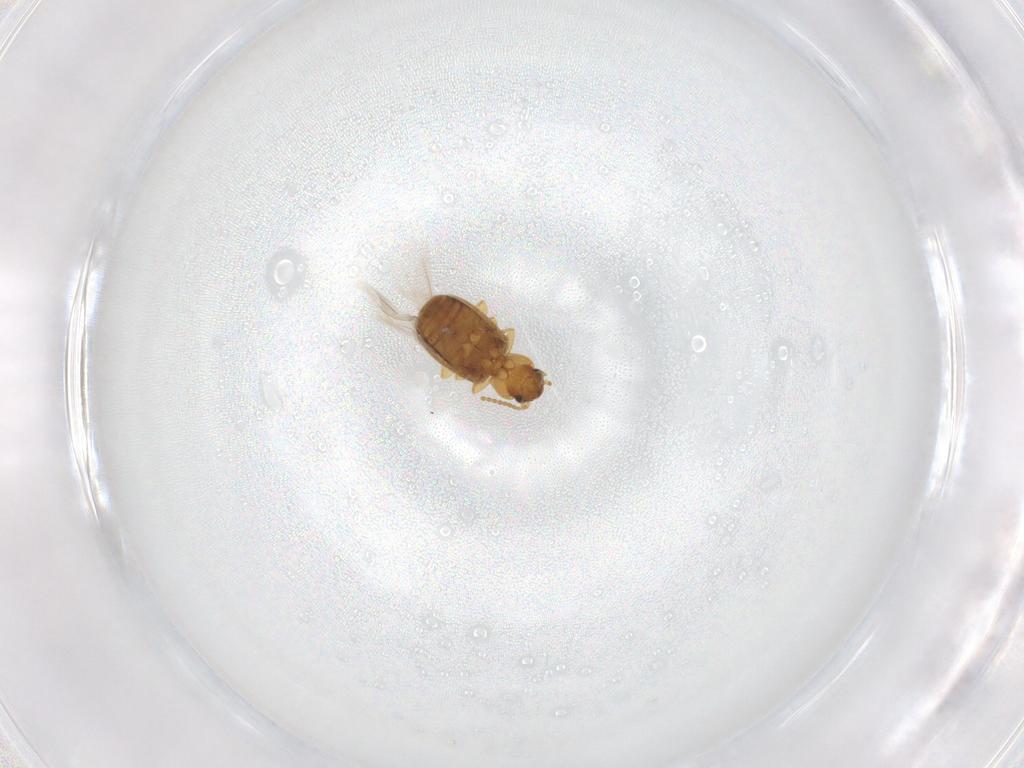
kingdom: Animalia
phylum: Arthropoda
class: Insecta
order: Coleoptera
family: Carabidae
